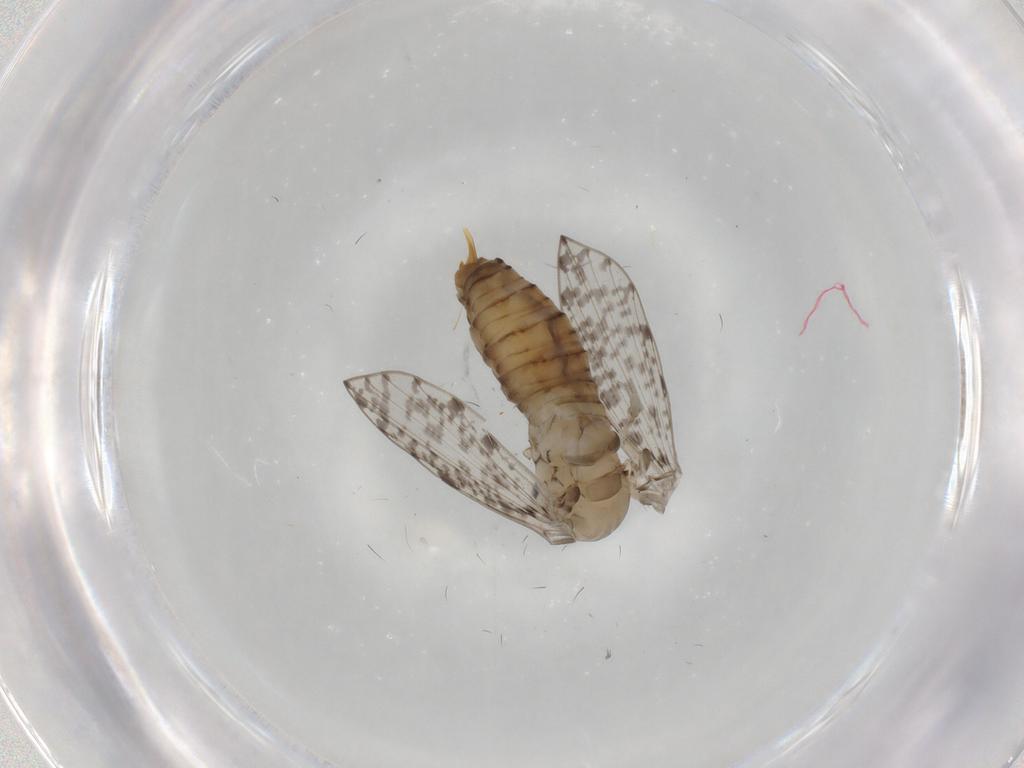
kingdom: Animalia
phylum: Arthropoda
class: Insecta
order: Diptera
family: Psychodidae
